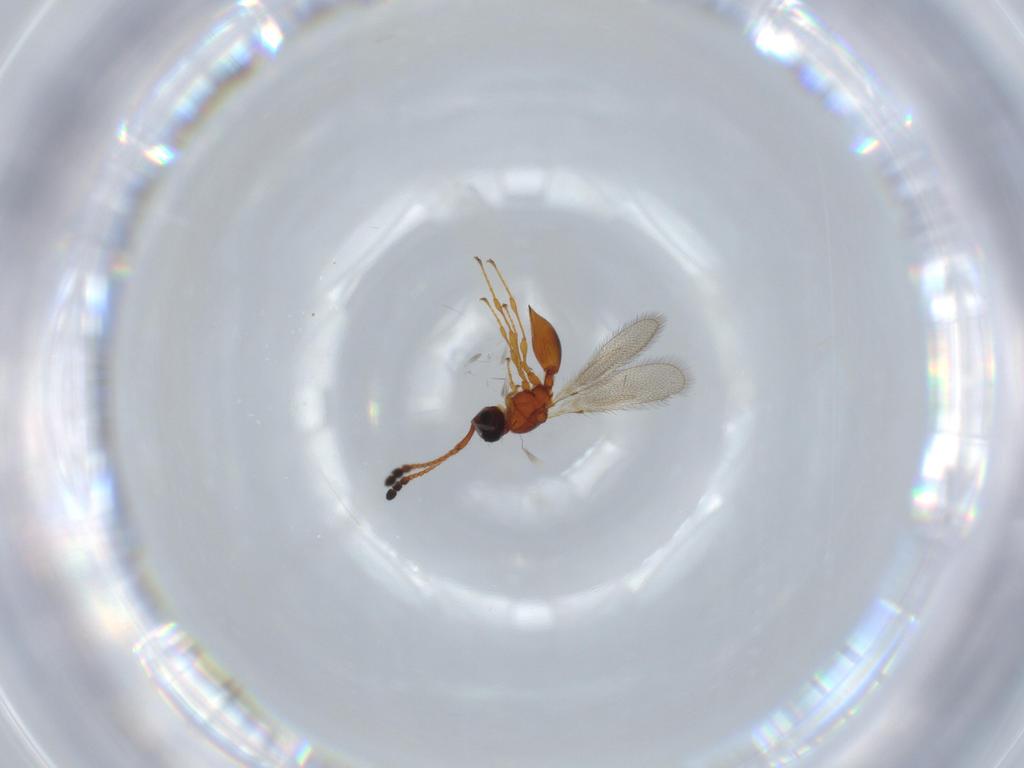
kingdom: Animalia
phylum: Arthropoda
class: Insecta
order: Hymenoptera
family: Diapriidae
